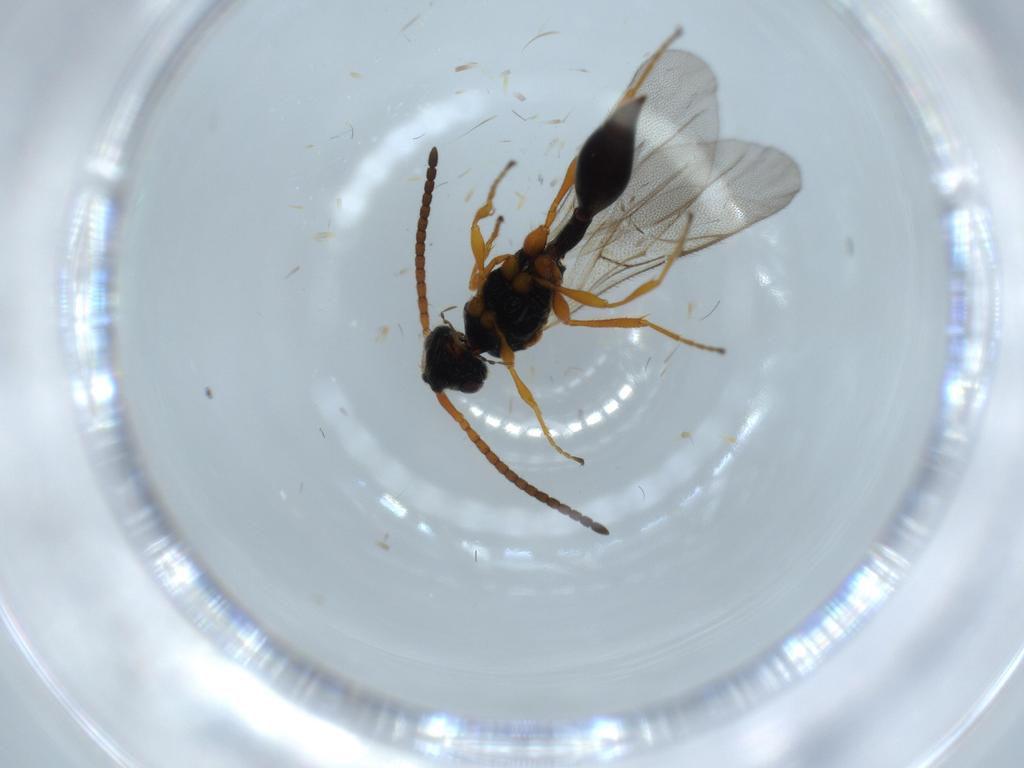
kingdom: Animalia
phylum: Arthropoda
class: Insecta
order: Hymenoptera
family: Diapriidae
